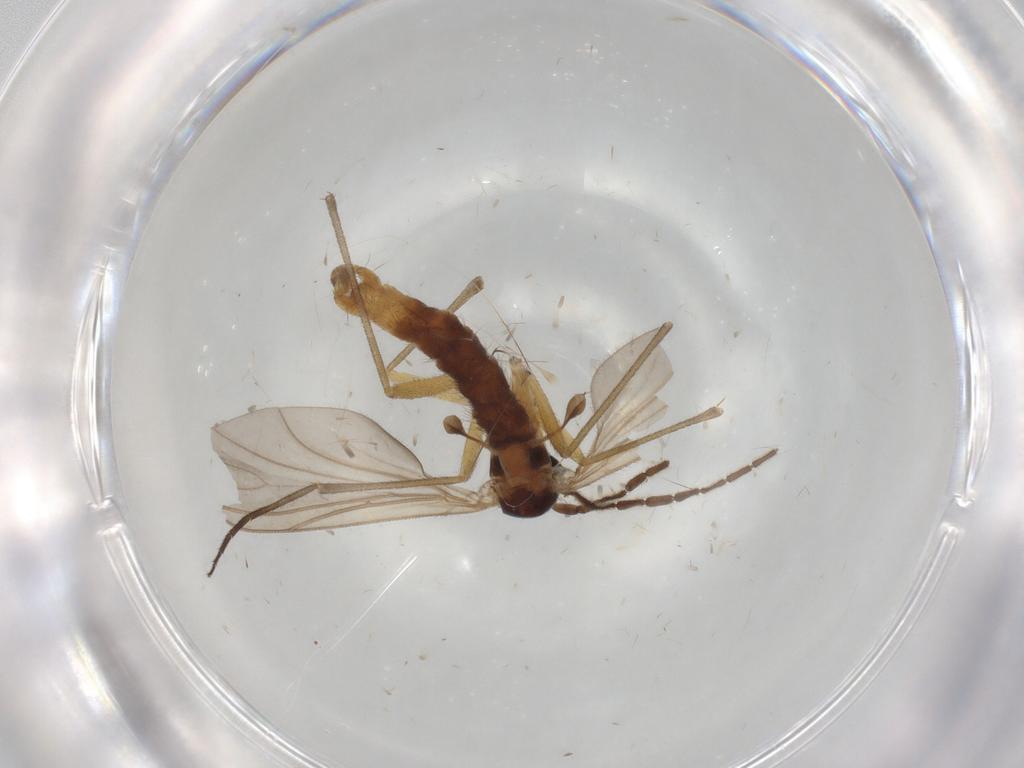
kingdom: Animalia
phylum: Arthropoda
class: Insecta
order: Diptera
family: Sciaridae
